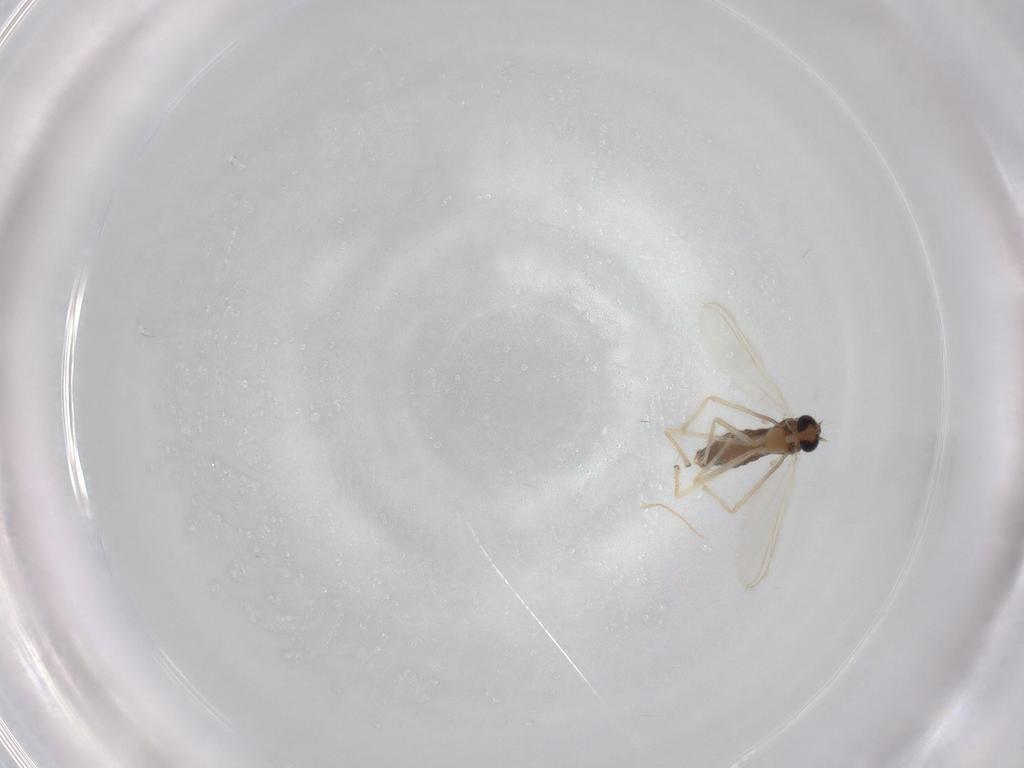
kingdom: Animalia
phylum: Arthropoda
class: Insecta
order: Diptera
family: Chironomidae
